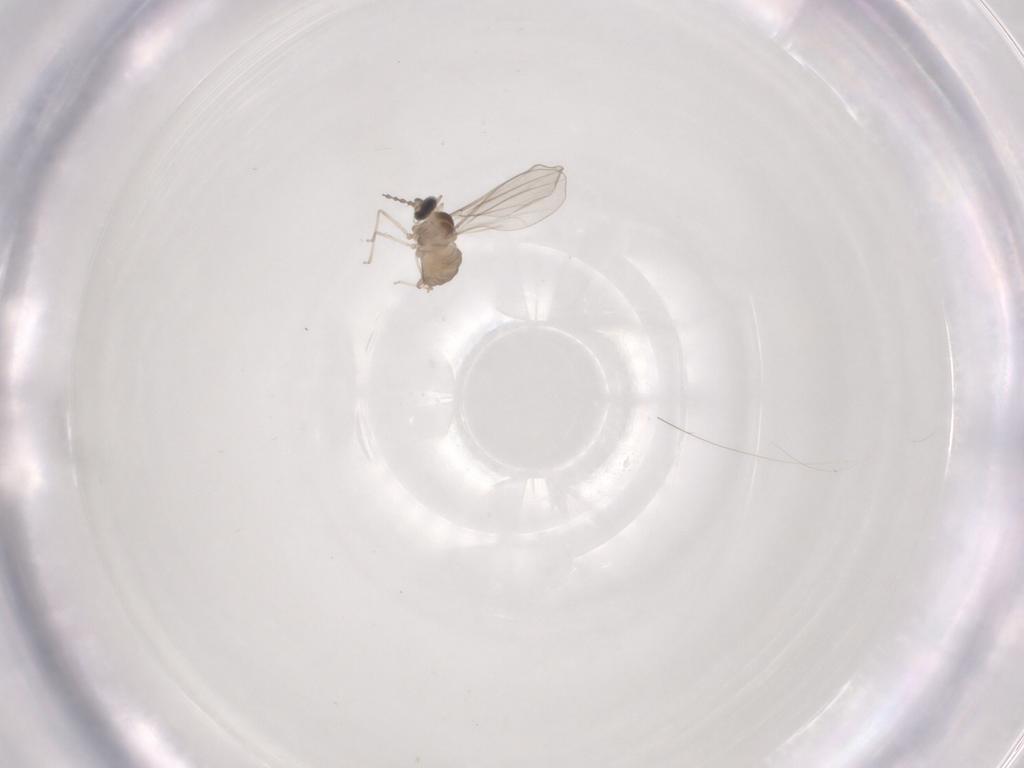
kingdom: Animalia
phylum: Arthropoda
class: Insecta
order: Diptera
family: Cecidomyiidae
